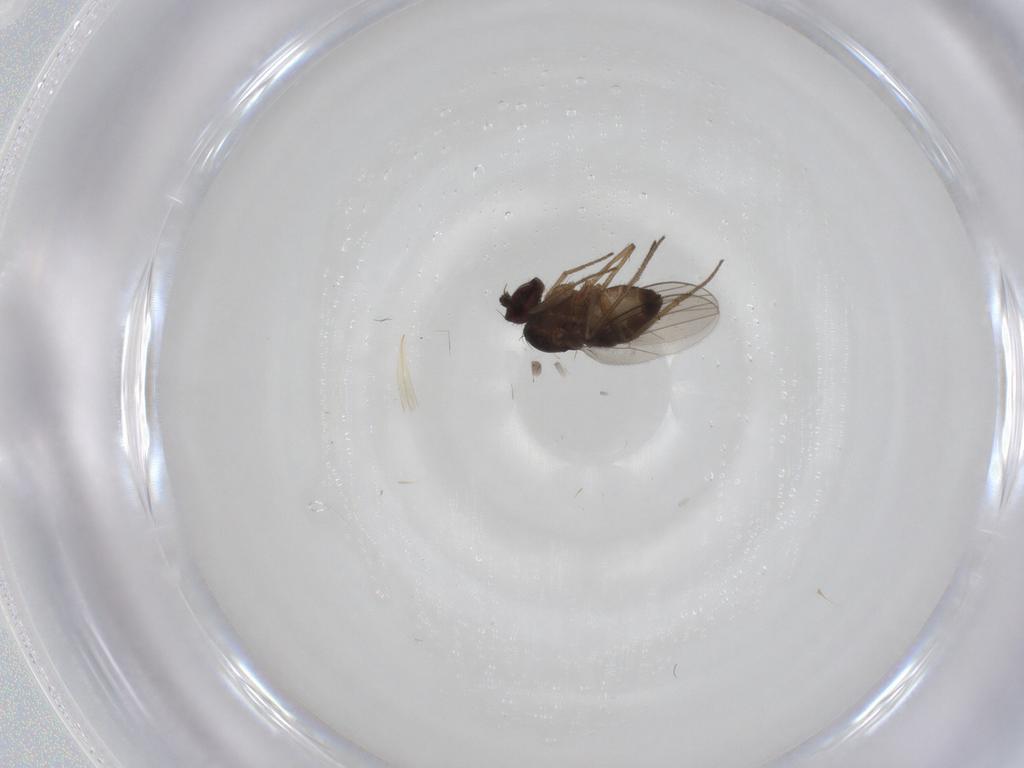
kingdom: Animalia
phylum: Arthropoda
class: Insecta
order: Diptera
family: Dolichopodidae
